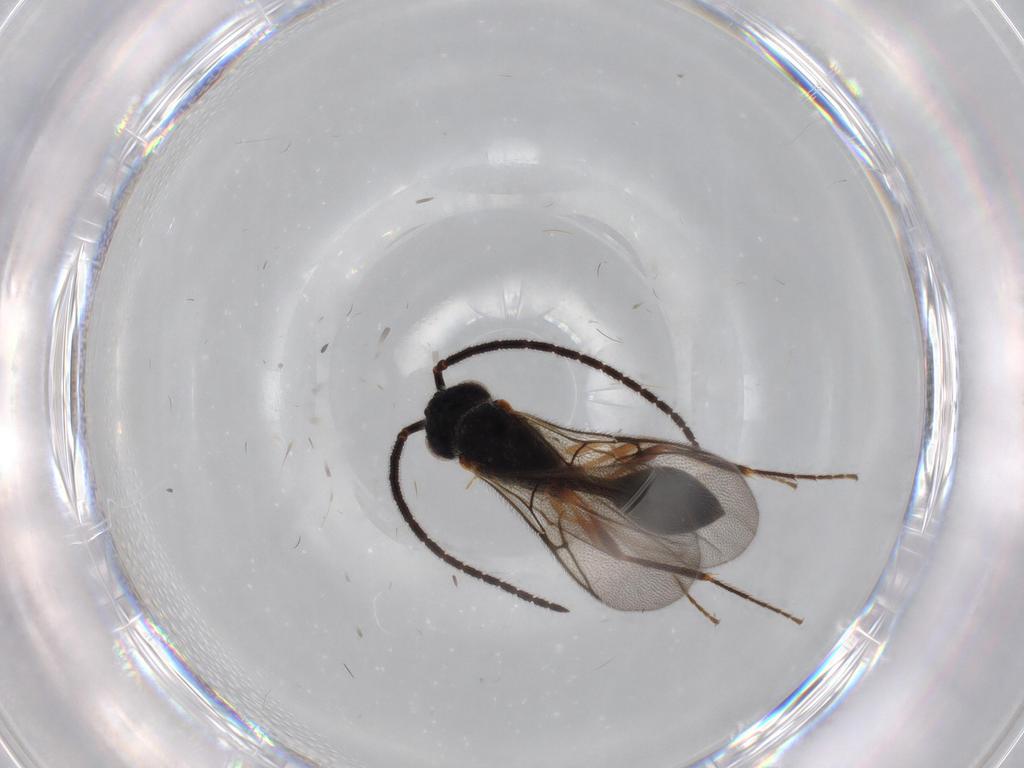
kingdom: Animalia
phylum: Arthropoda
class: Insecta
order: Hymenoptera
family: Diapriidae
